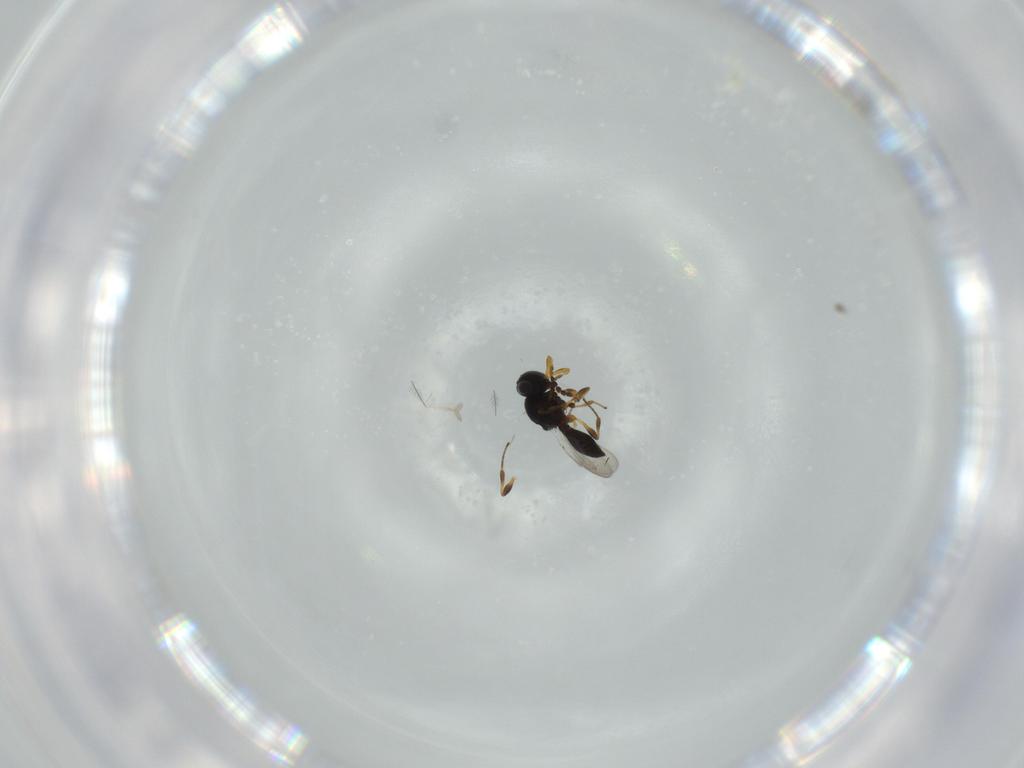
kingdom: Animalia
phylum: Arthropoda
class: Insecta
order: Hymenoptera
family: Platygastridae
